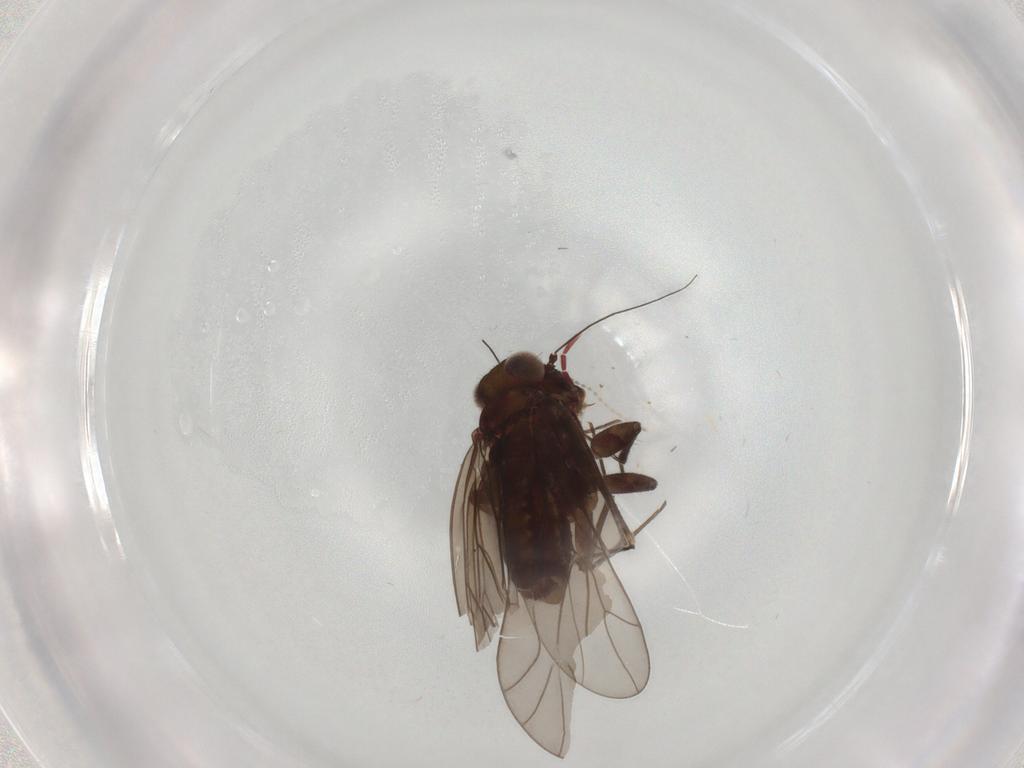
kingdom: Animalia
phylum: Arthropoda
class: Insecta
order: Psocodea
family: Philotarsidae
